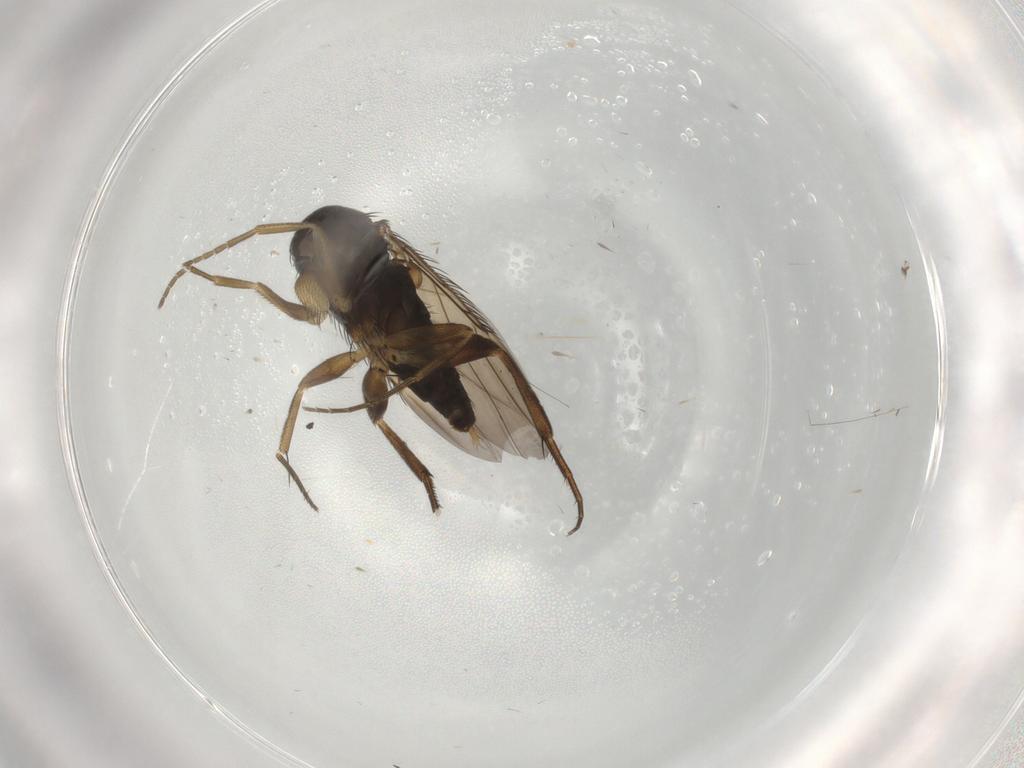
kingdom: Animalia
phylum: Arthropoda
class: Insecta
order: Diptera
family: Phoridae
